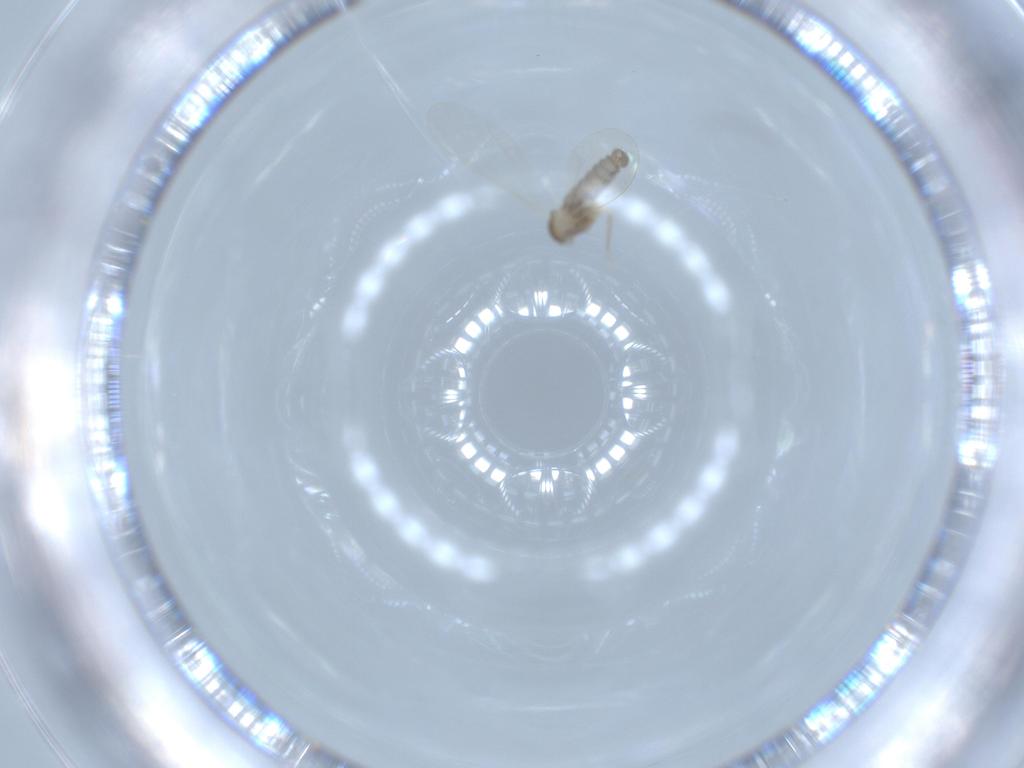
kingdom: Animalia
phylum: Arthropoda
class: Insecta
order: Diptera
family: Cecidomyiidae
